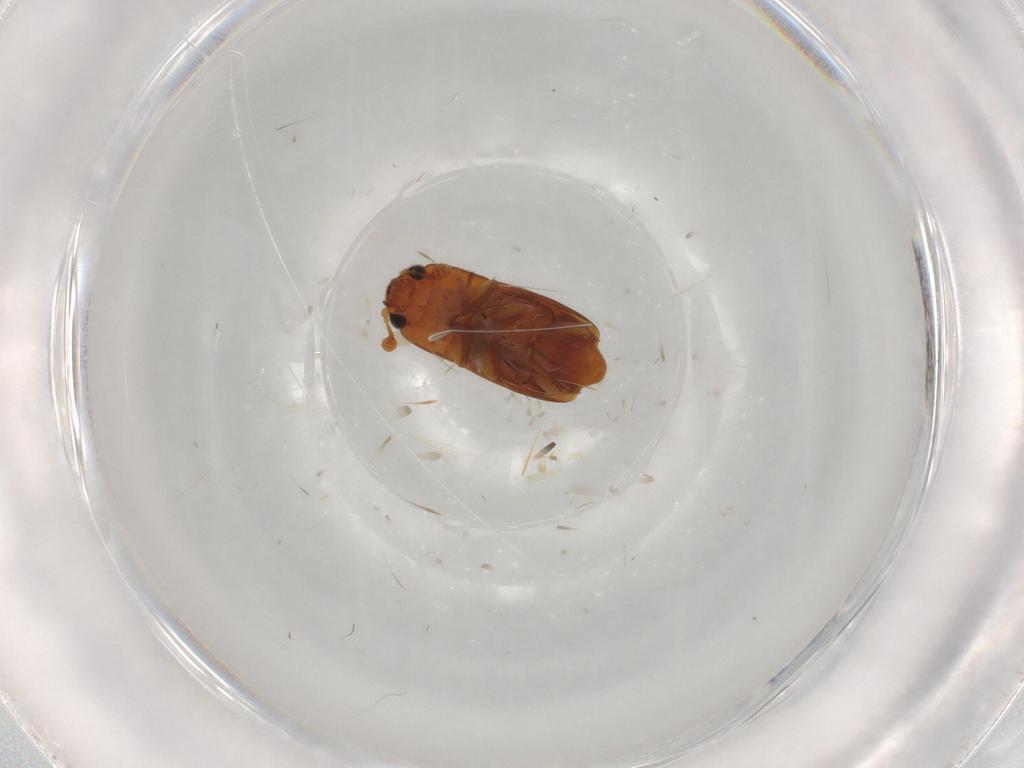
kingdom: Animalia
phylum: Arthropoda
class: Insecta
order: Coleoptera
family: Nitidulidae
